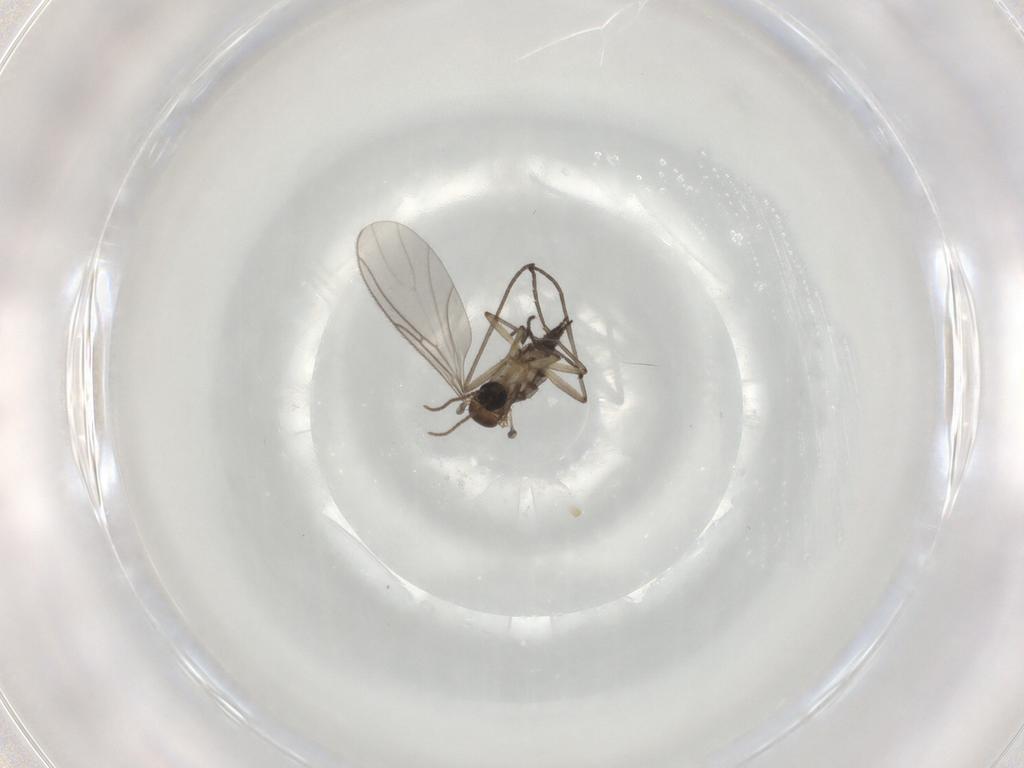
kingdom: Animalia
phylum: Arthropoda
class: Insecta
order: Diptera
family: Sciaridae
